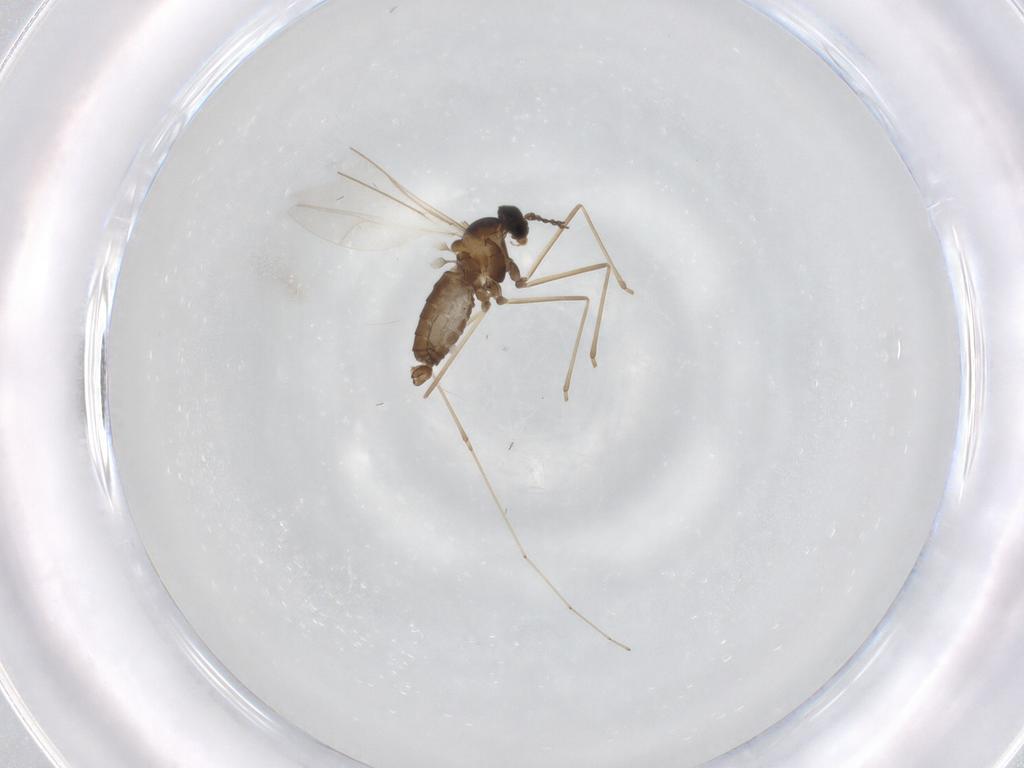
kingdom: Animalia
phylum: Arthropoda
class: Insecta
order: Diptera
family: Cecidomyiidae
